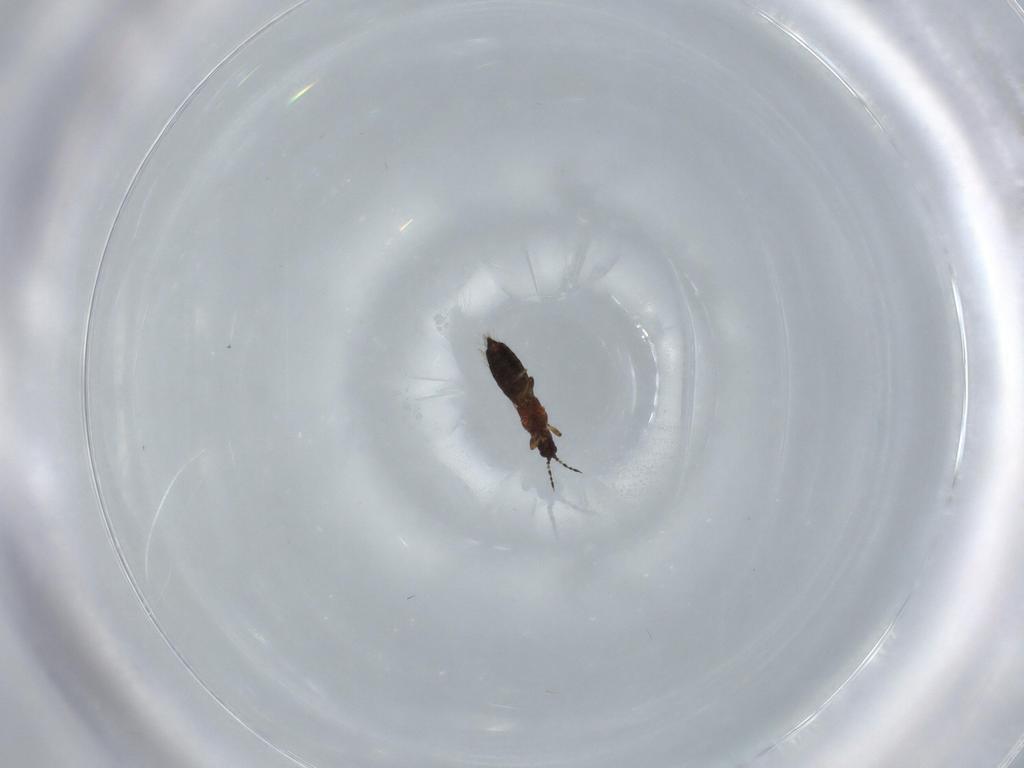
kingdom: Animalia
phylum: Arthropoda
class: Insecta
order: Thysanoptera
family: Thripidae
